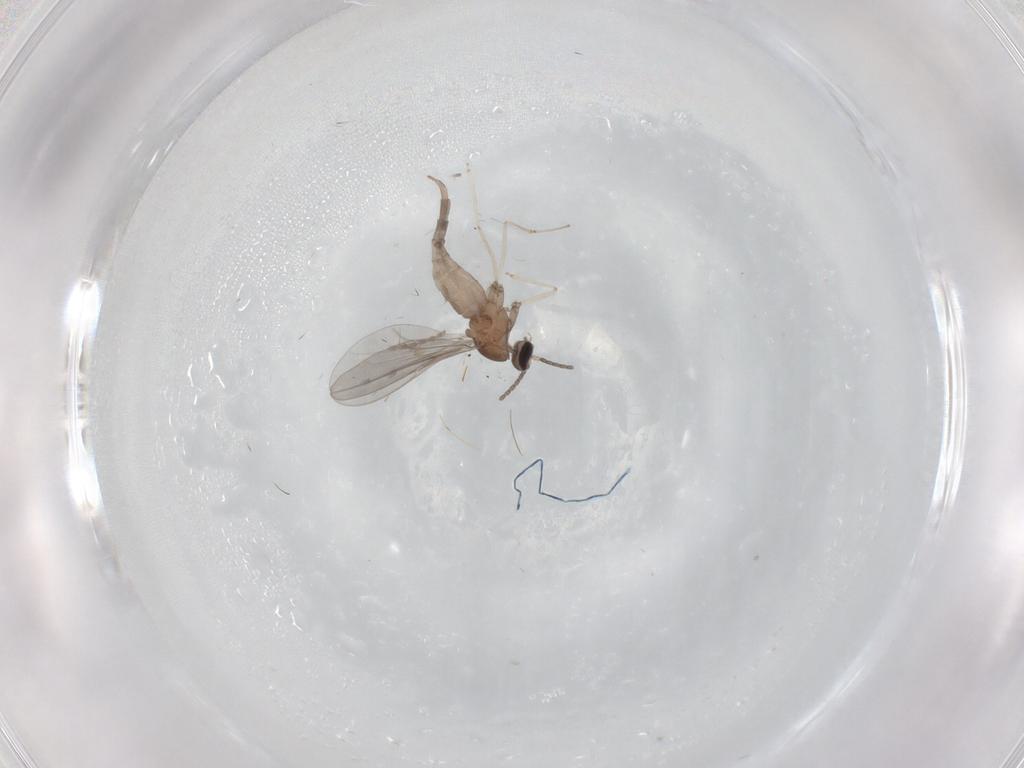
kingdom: Animalia
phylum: Arthropoda
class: Insecta
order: Diptera
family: Cecidomyiidae
